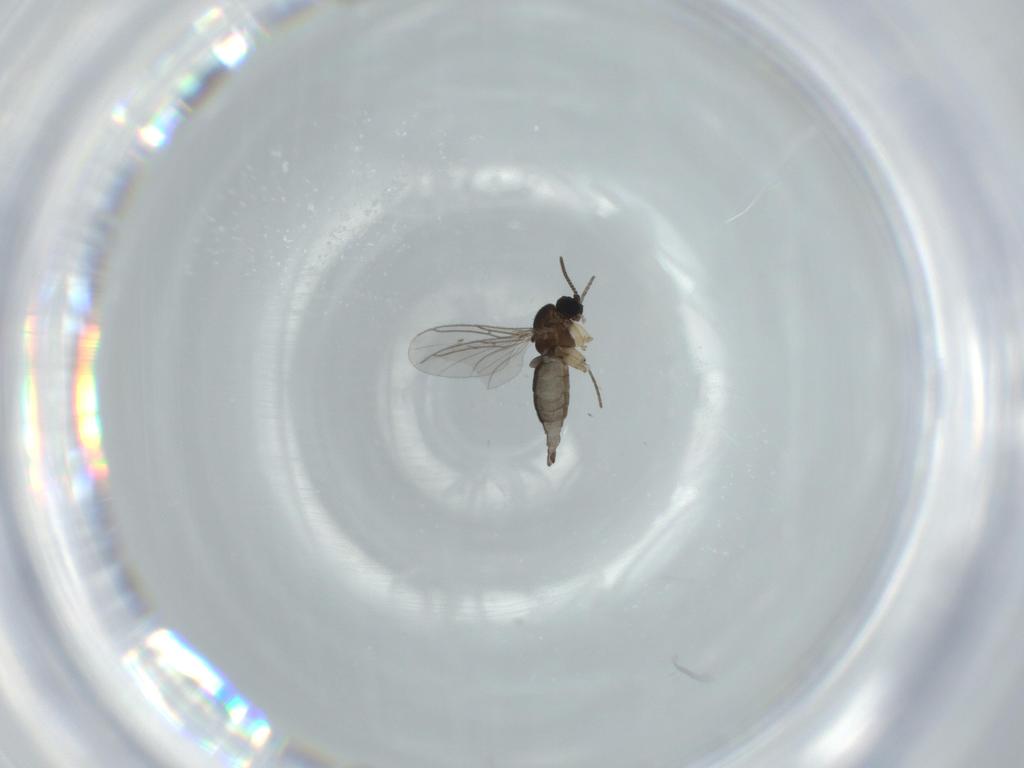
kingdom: Animalia
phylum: Arthropoda
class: Insecta
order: Diptera
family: Sciaridae
